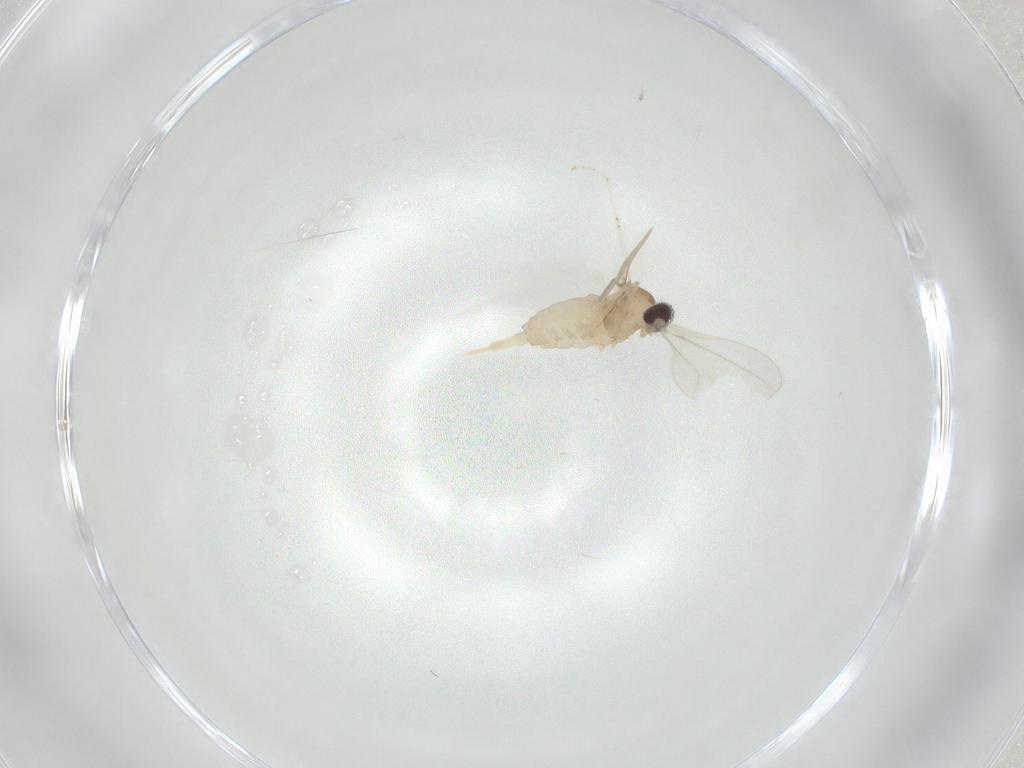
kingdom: Animalia
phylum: Arthropoda
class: Insecta
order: Diptera
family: Cecidomyiidae
